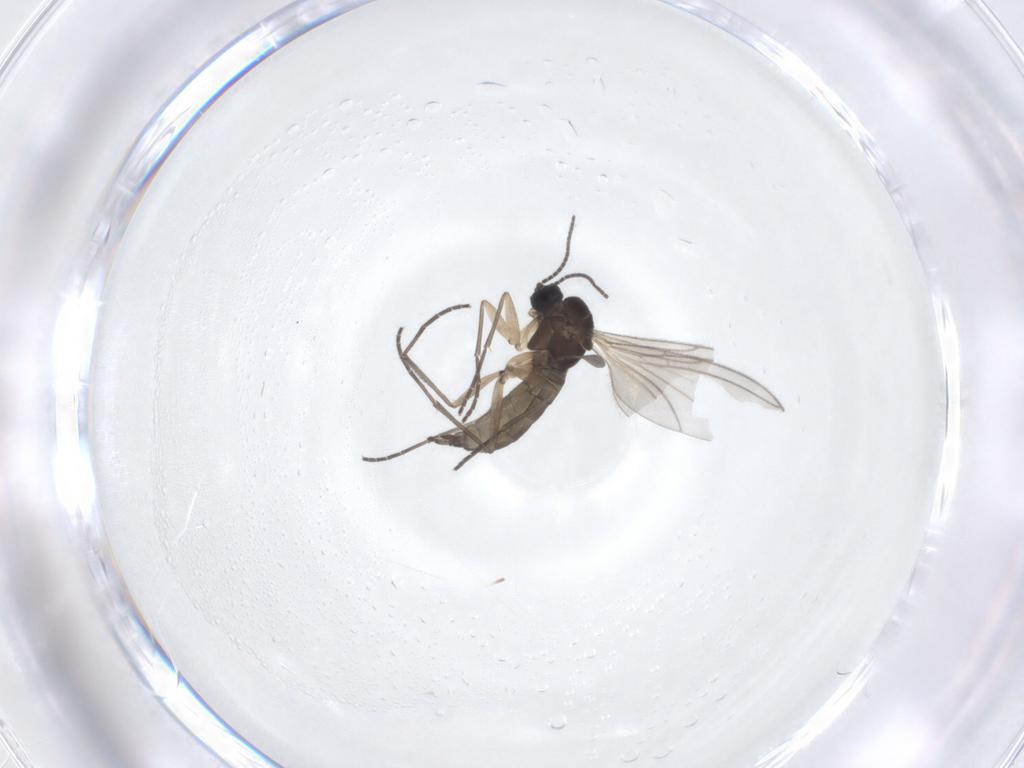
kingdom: Animalia
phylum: Arthropoda
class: Insecta
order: Diptera
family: Sciaridae
